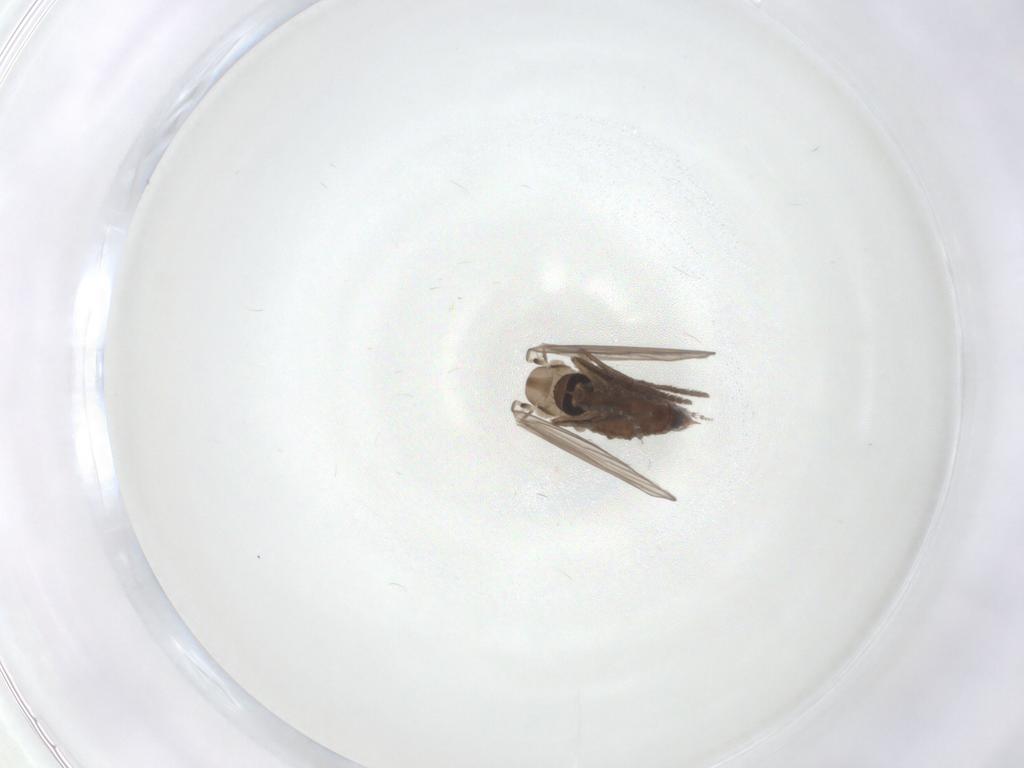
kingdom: Animalia
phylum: Arthropoda
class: Insecta
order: Diptera
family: Psychodidae
